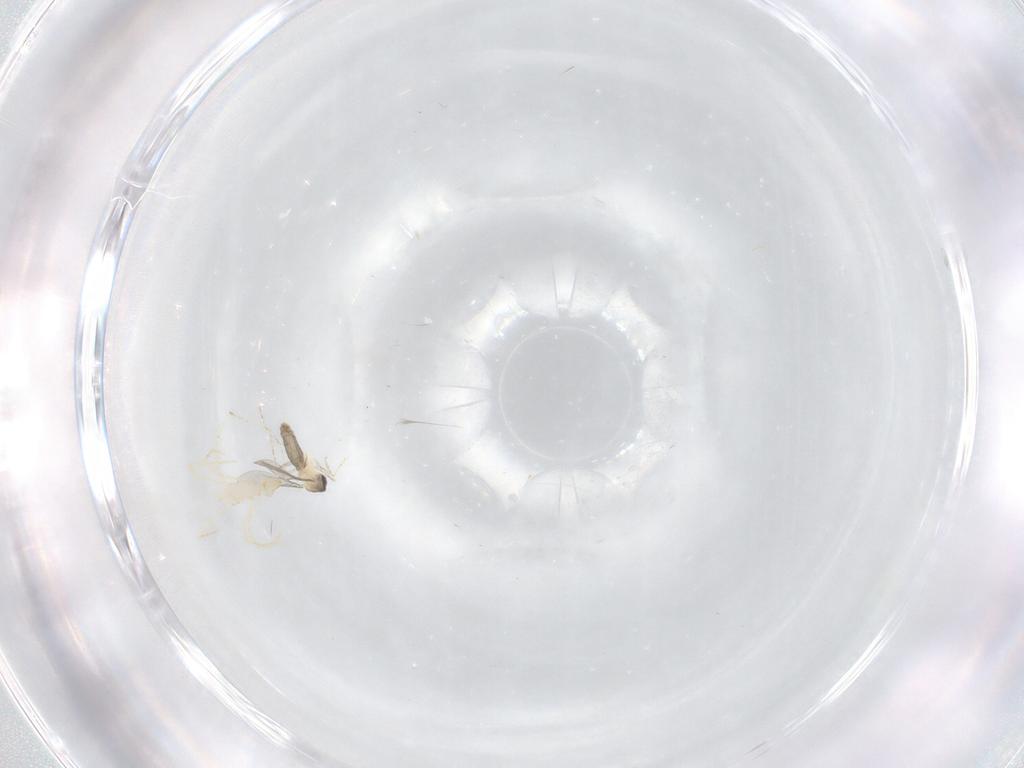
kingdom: Animalia
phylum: Arthropoda
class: Insecta
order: Diptera
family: Cecidomyiidae
